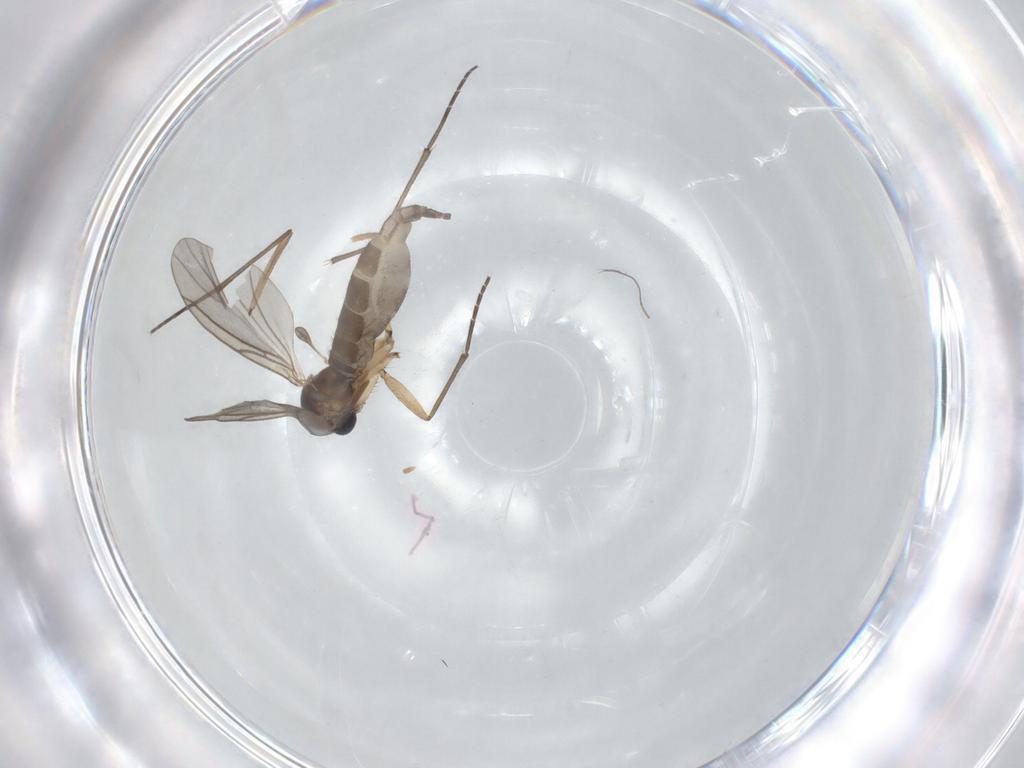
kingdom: Animalia
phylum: Arthropoda
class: Insecta
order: Diptera
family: Sciaridae
